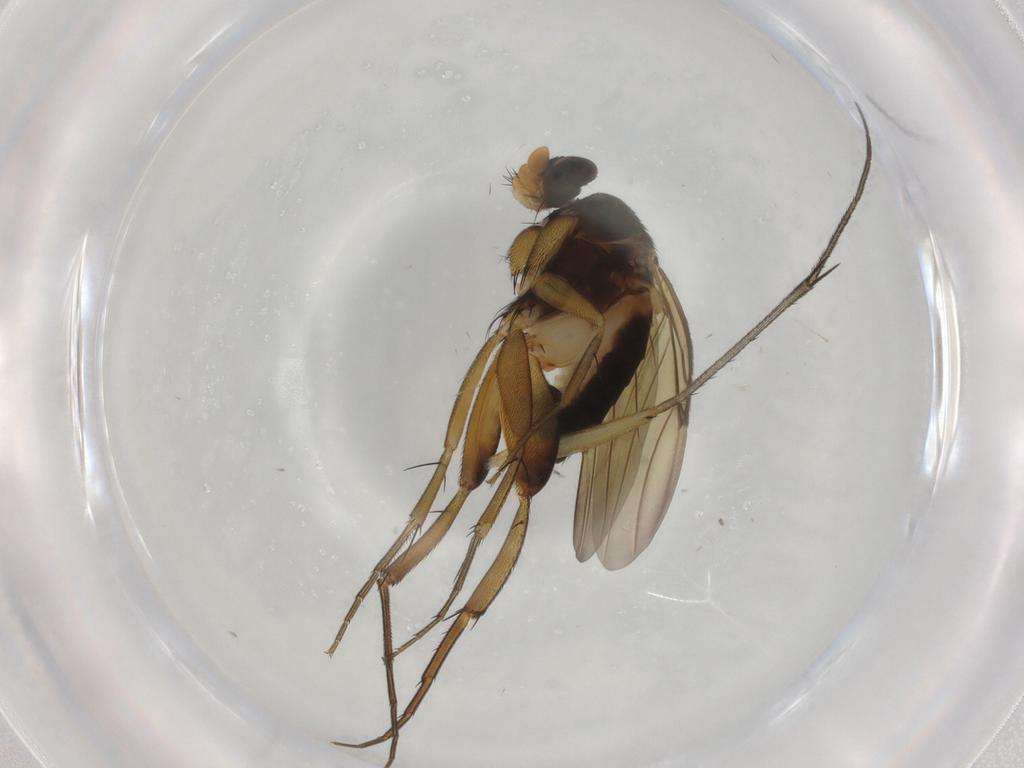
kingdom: Animalia
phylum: Arthropoda
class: Insecta
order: Diptera
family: Phoridae
